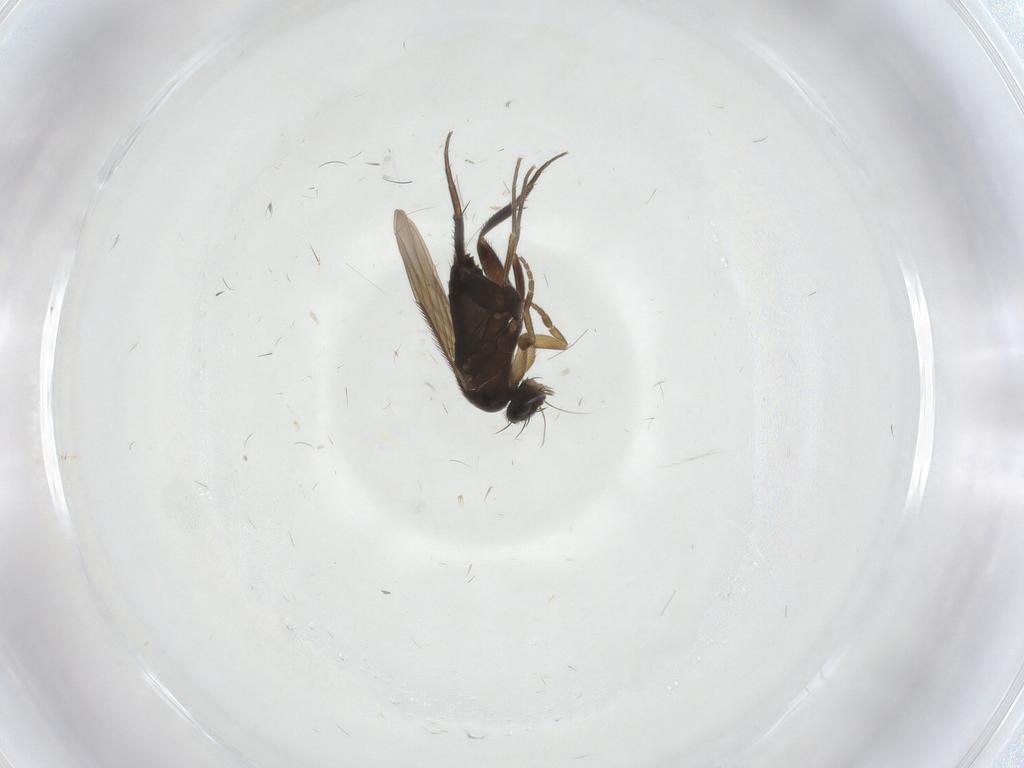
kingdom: Animalia
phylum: Arthropoda
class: Insecta
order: Diptera
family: Phoridae
